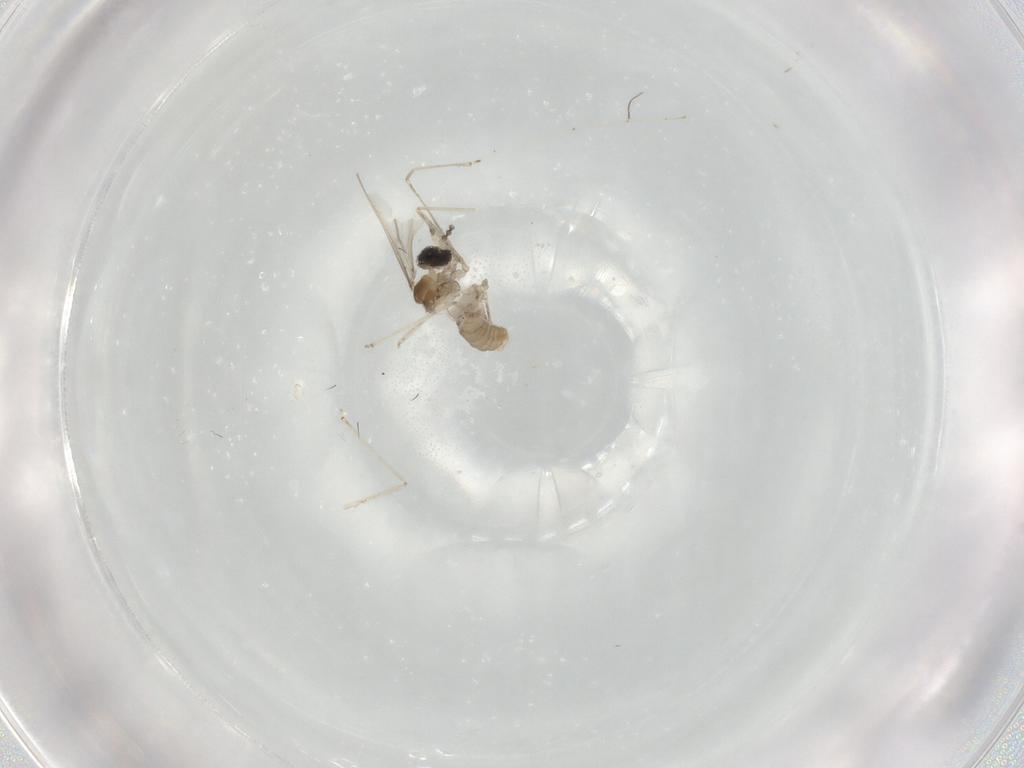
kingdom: Animalia
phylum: Arthropoda
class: Insecta
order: Diptera
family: Cecidomyiidae
